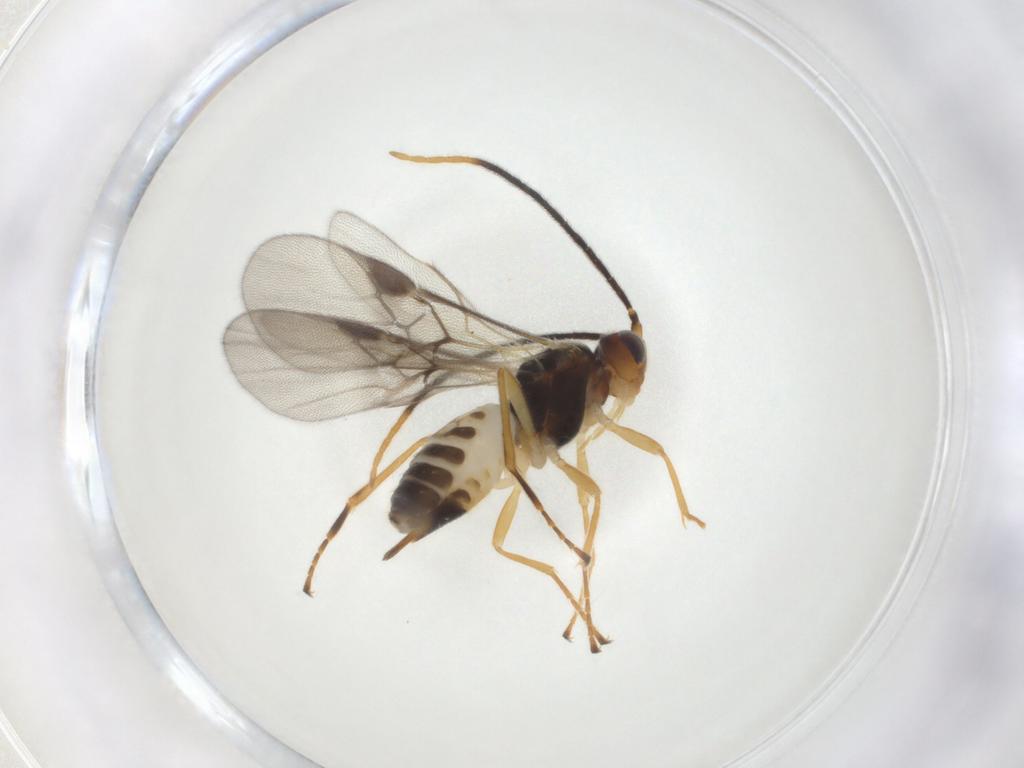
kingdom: Animalia
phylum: Arthropoda
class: Insecta
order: Hymenoptera
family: Braconidae
